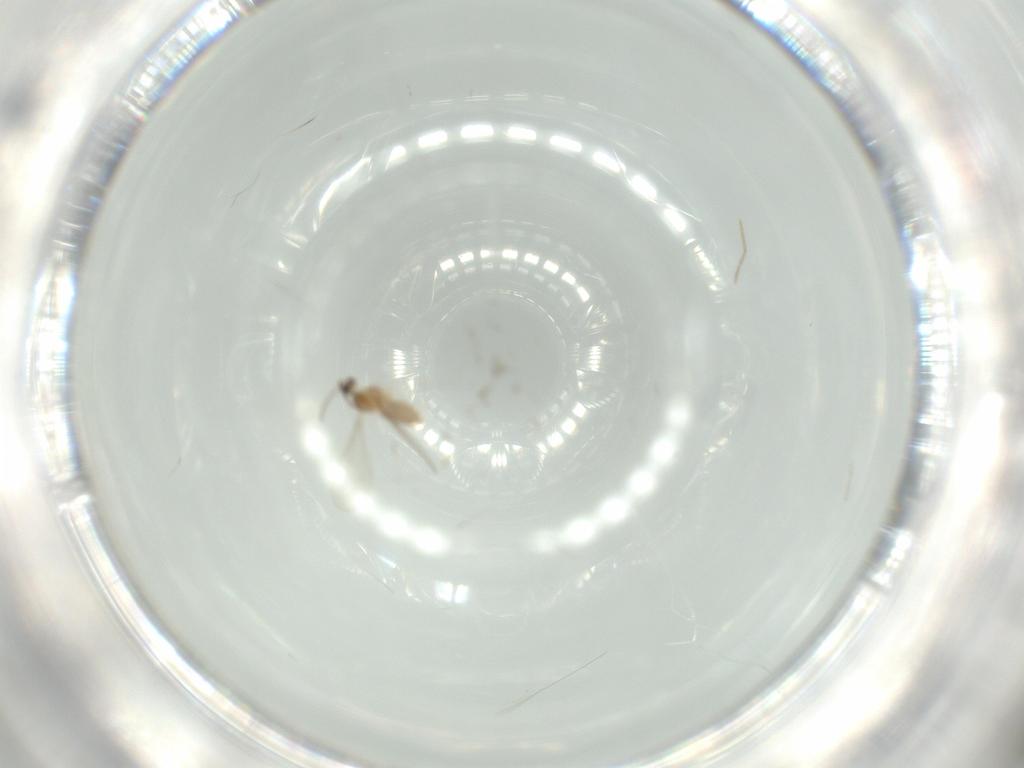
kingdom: Animalia
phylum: Arthropoda
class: Insecta
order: Diptera
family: Cecidomyiidae
